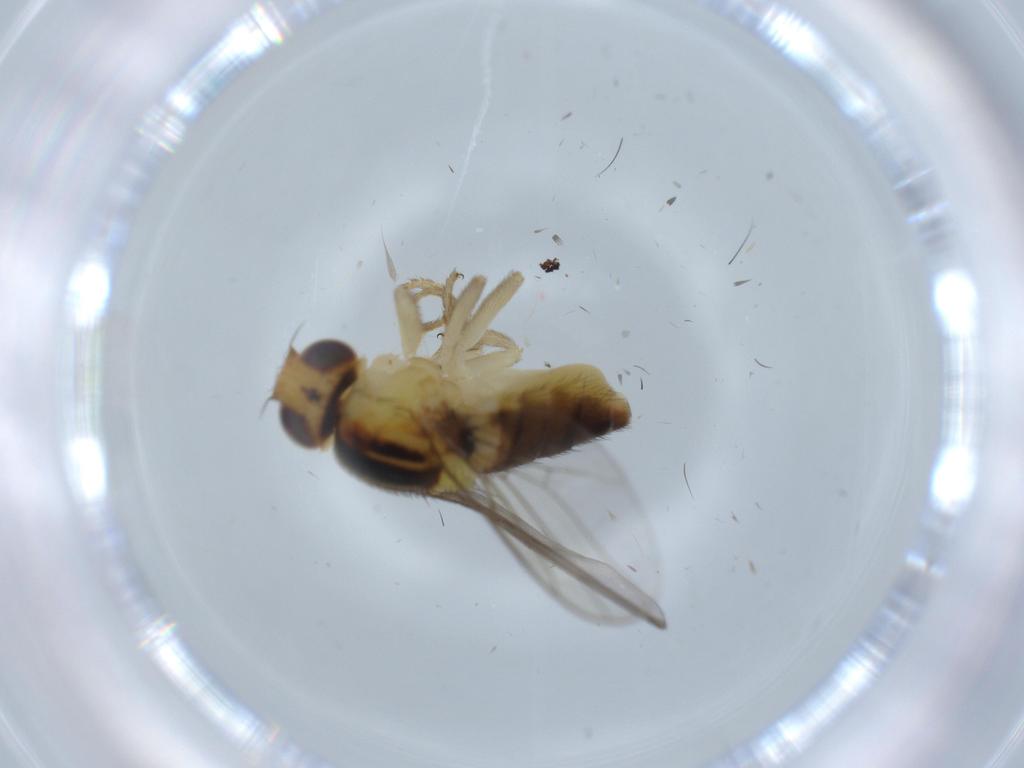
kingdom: Animalia
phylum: Arthropoda
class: Insecta
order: Diptera
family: Chloropidae
